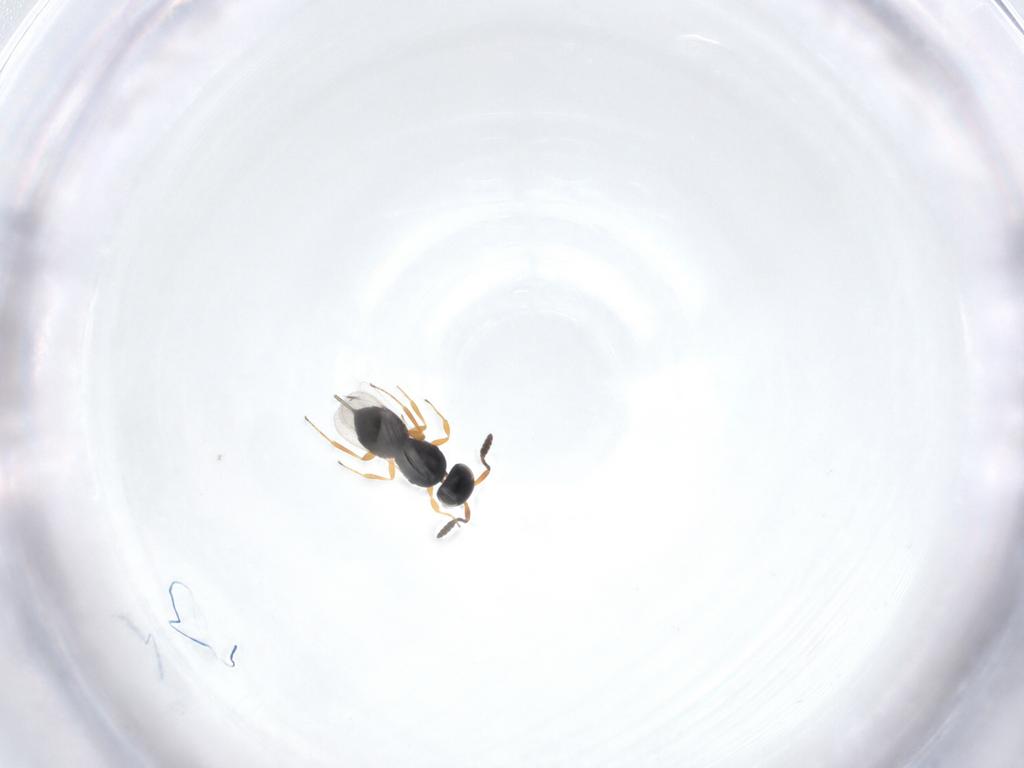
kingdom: Animalia
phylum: Arthropoda
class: Insecta
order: Hymenoptera
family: Scelionidae
